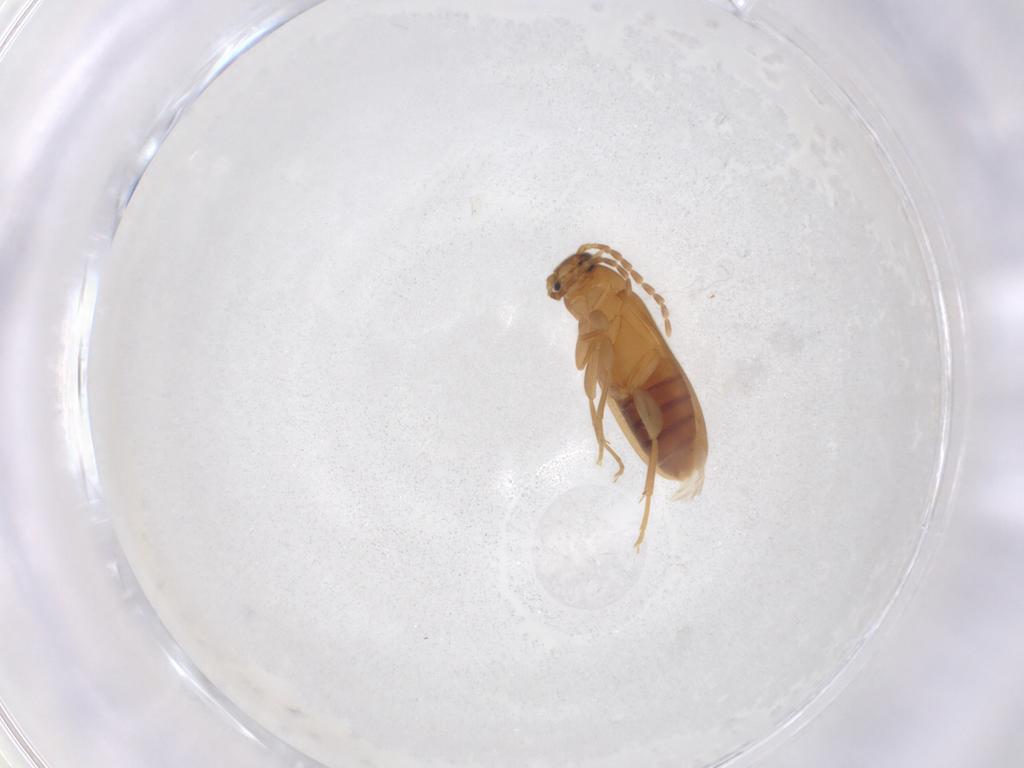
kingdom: Animalia
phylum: Arthropoda
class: Insecta
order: Coleoptera
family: Scraptiidae
